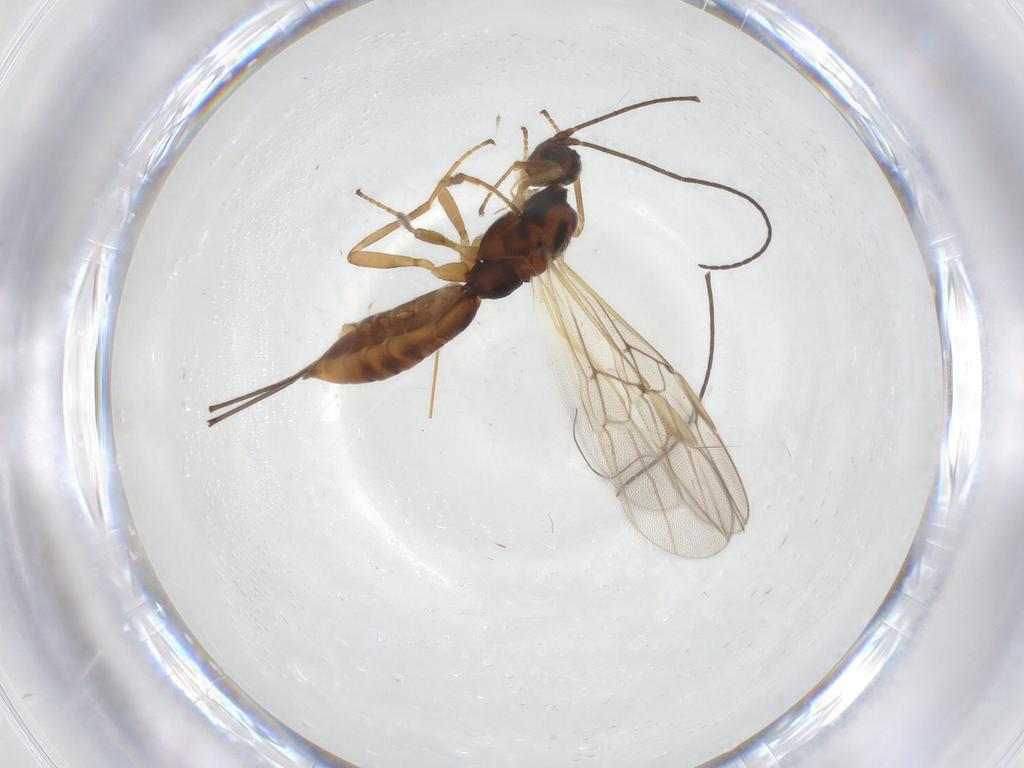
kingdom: Animalia
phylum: Arthropoda
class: Insecta
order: Hymenoptera
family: Braconidae
